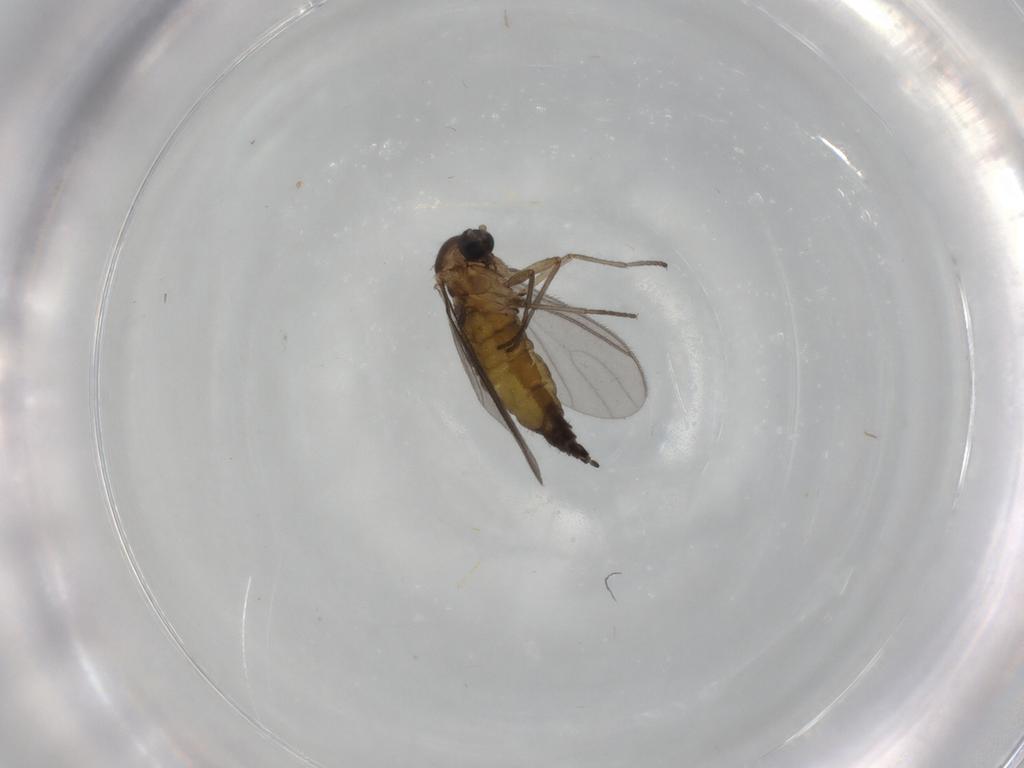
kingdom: Animalia
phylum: Arthropoda
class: Insecta
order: Diptera
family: Sciaridae
